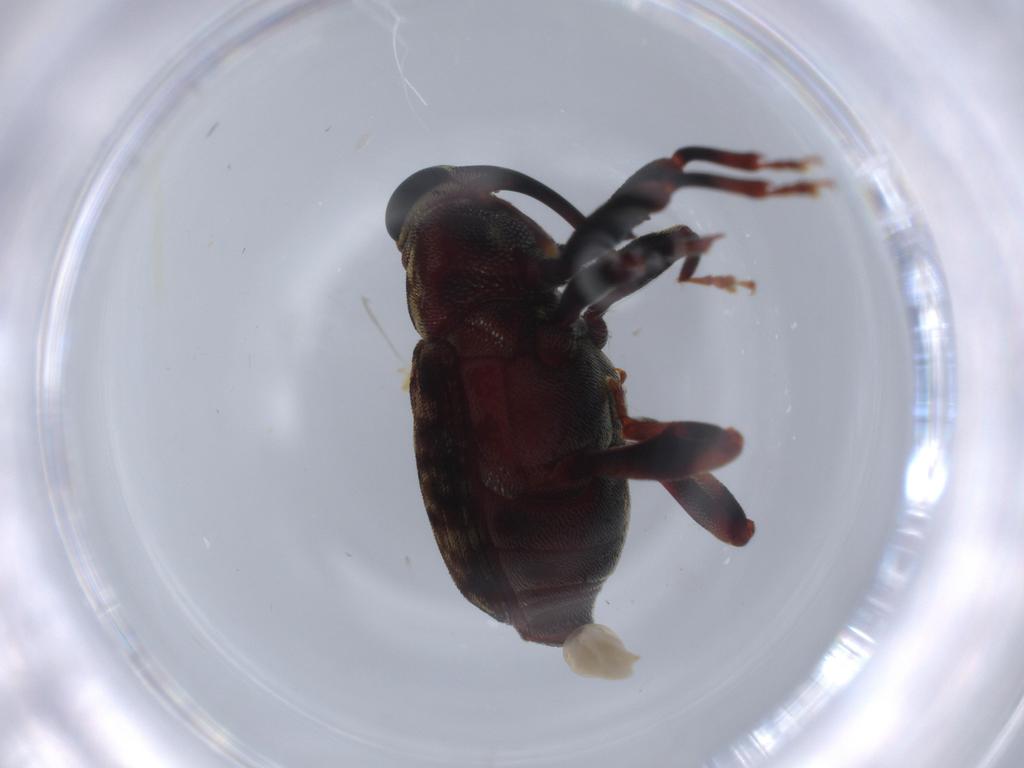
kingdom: Animalia
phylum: Arthropoda
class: Insecta
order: Coleoptera
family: Curculionidae
